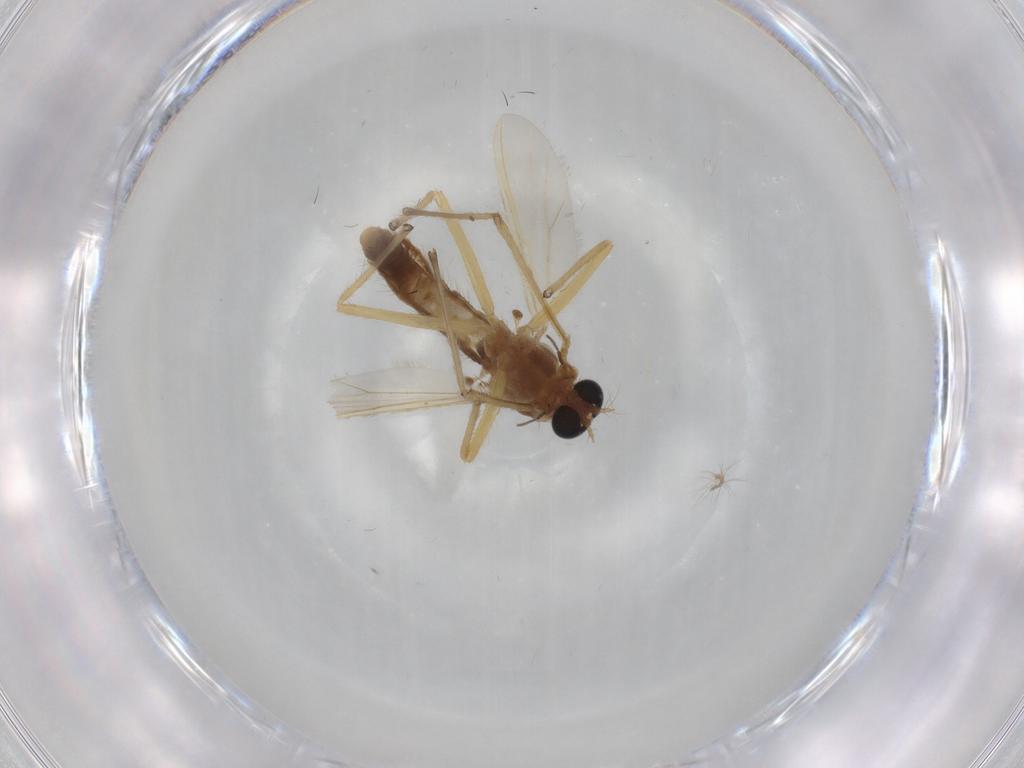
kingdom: Animalia
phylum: Arthropoda
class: Insecta
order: Diptera
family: Chironomidae
